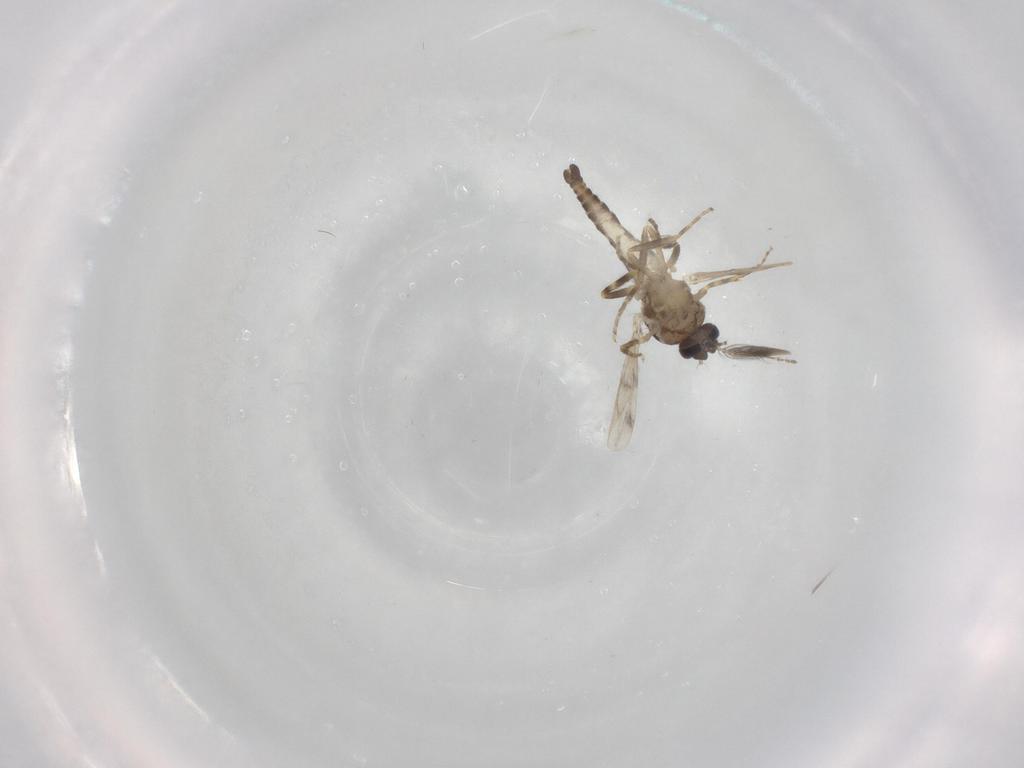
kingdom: Animalia
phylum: Arthropoda
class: Insecta
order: Diptera
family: Ceratopogonidae
